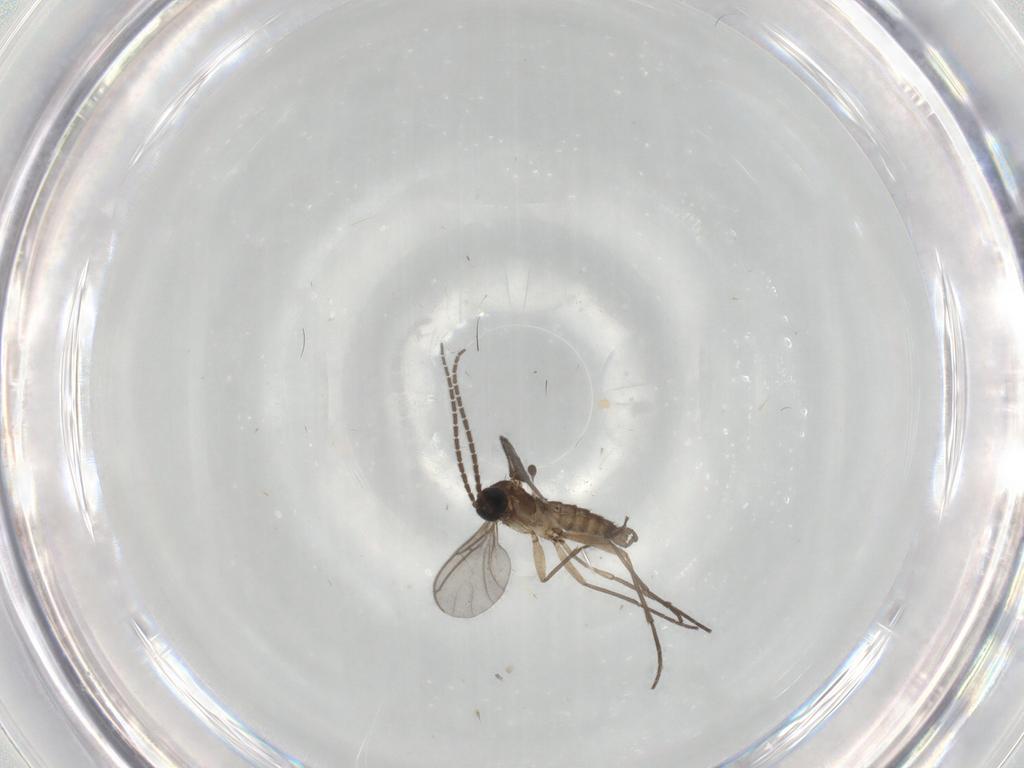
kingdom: Animalia
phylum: Arthropoda
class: Insecta
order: Diptera
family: Sciaridae
